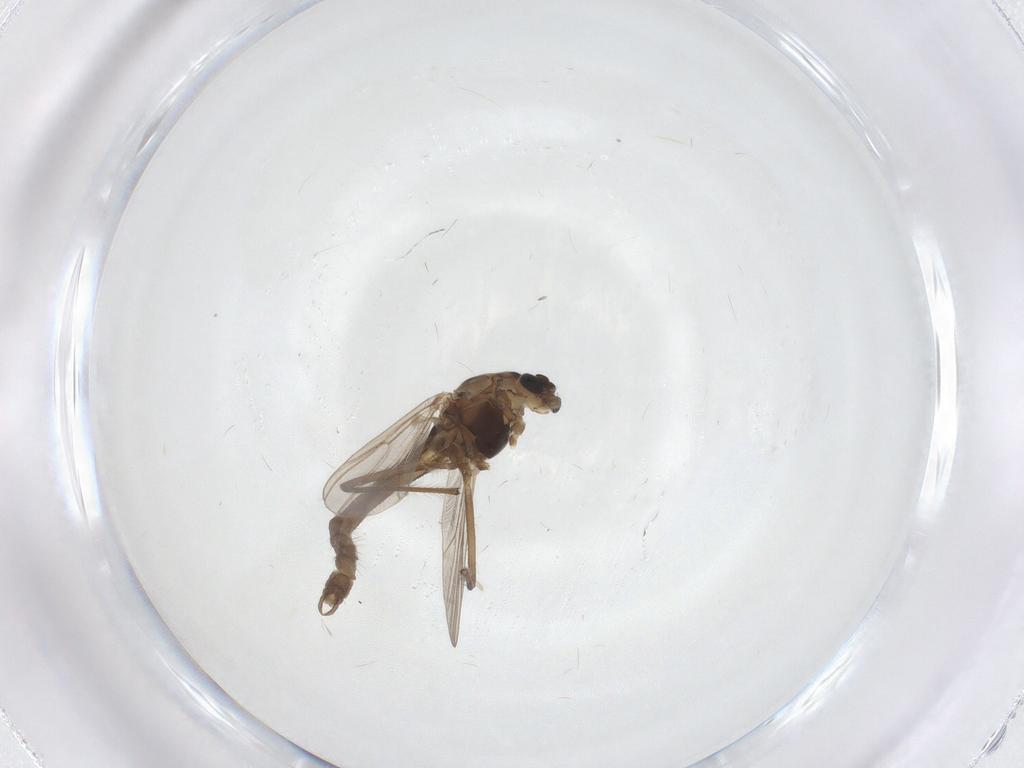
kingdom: Animalia
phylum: Arthropoda
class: Insecta
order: Diptera
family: Chironomidae
